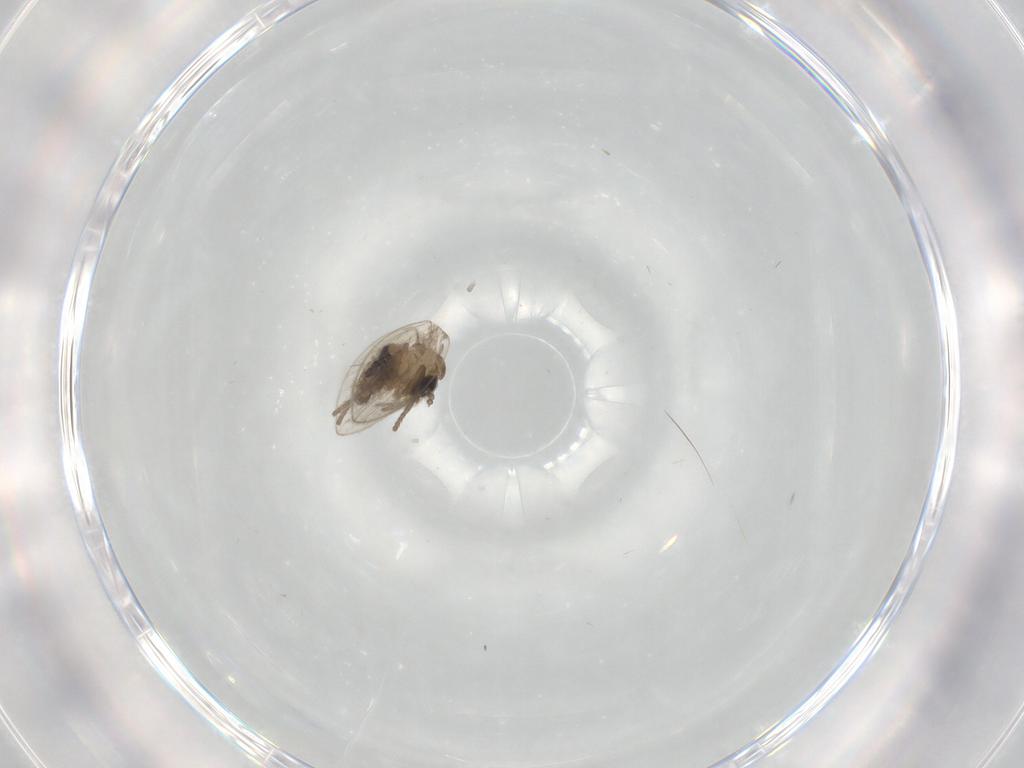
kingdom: Animalia
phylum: Arthropoda
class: Insecta
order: Diptera
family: Psychodidae
